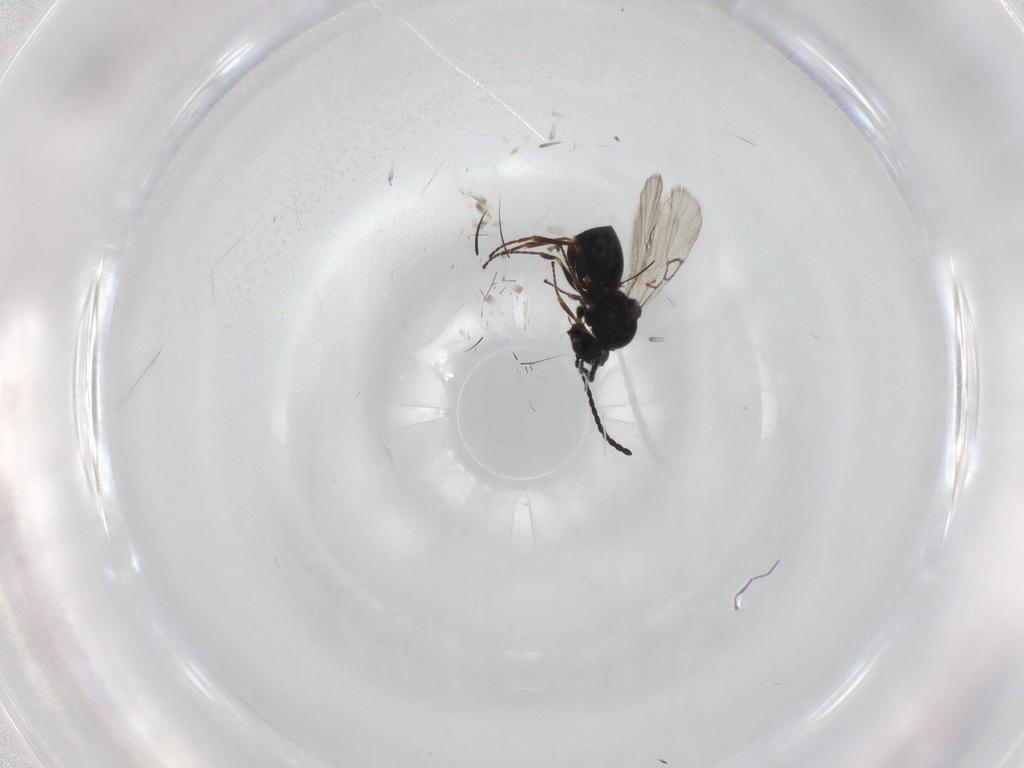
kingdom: Animalia
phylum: Arthropoda
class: Insecta
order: Hymenoptera
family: Figitidae
